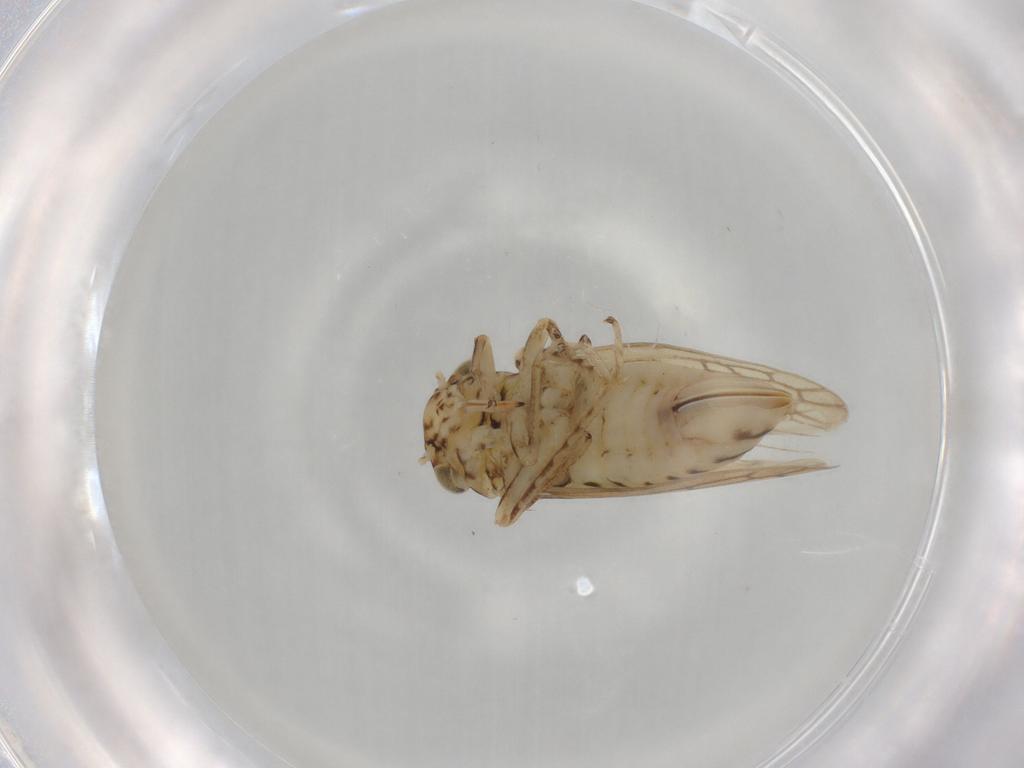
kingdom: Animalia
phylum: Arthropoda
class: Insecta
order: Hemiptera
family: Cicadellidae
